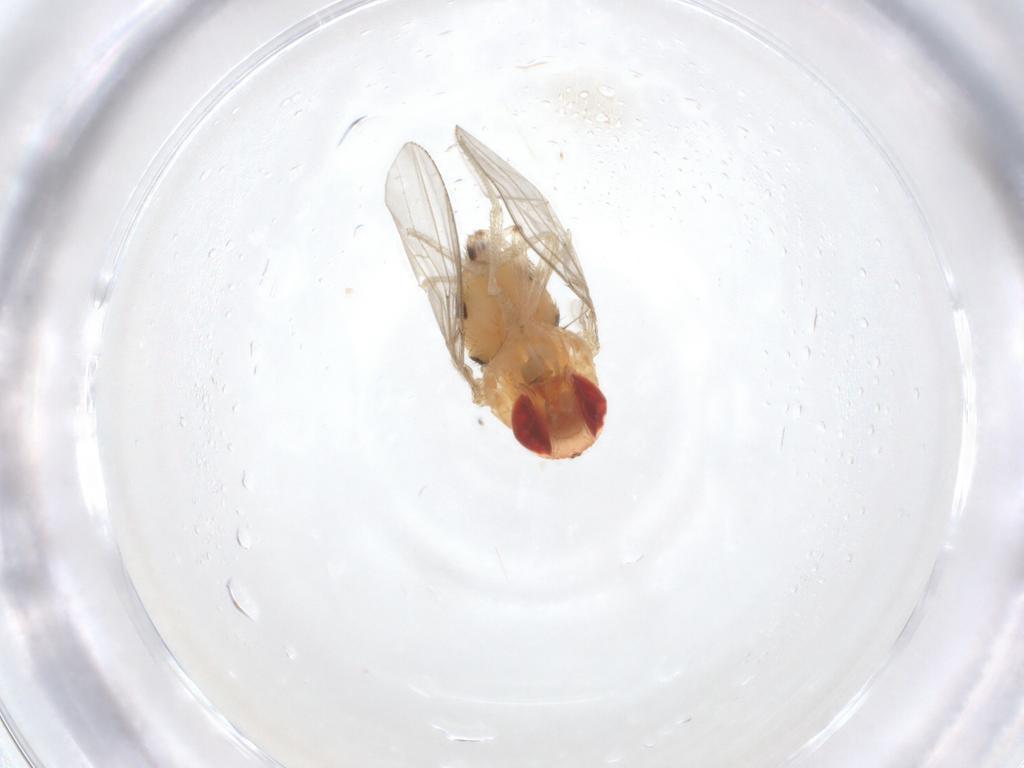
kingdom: Animalia
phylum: Arthropoda
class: Insecta
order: Diptera
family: Drosophilidae
